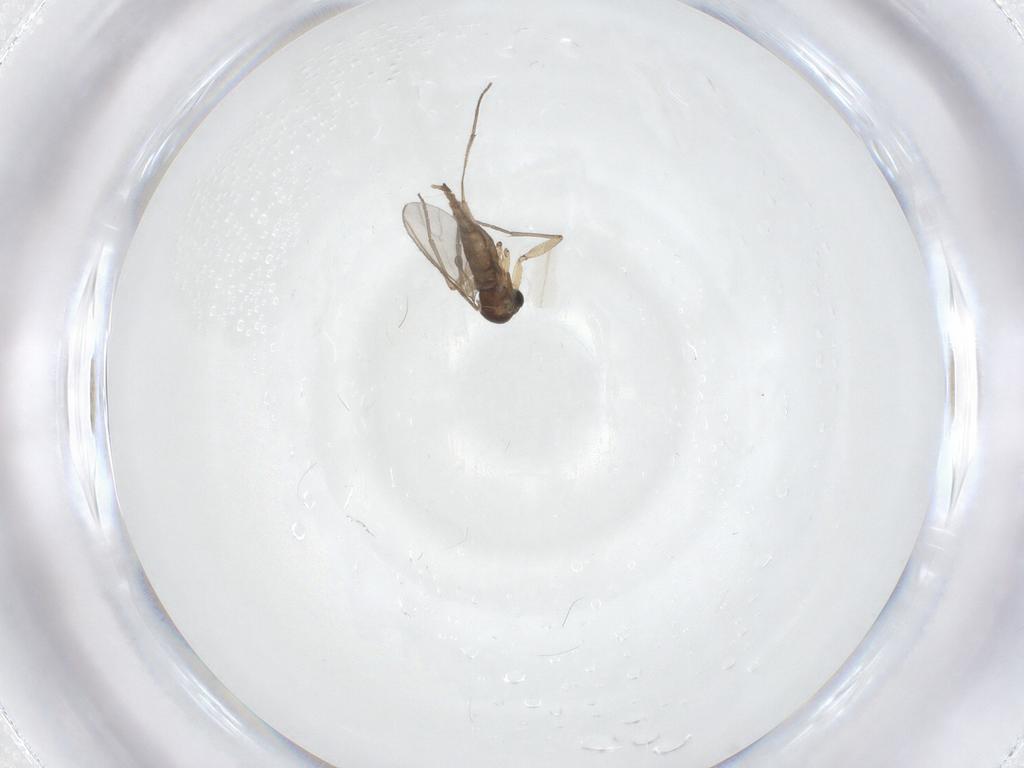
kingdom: Animalia
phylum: Arthropoda
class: Insecta
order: Diptera
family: Sciaridae
